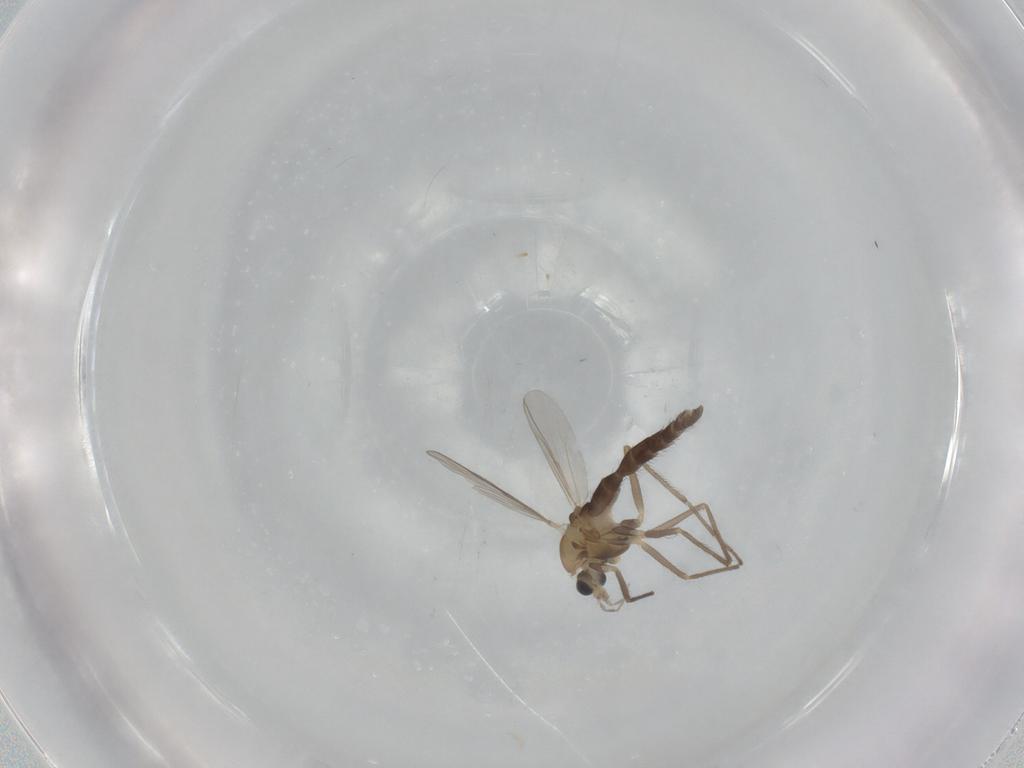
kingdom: Animalia
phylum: Arthropoda
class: Insecta
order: Diptera
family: Chironomidae
